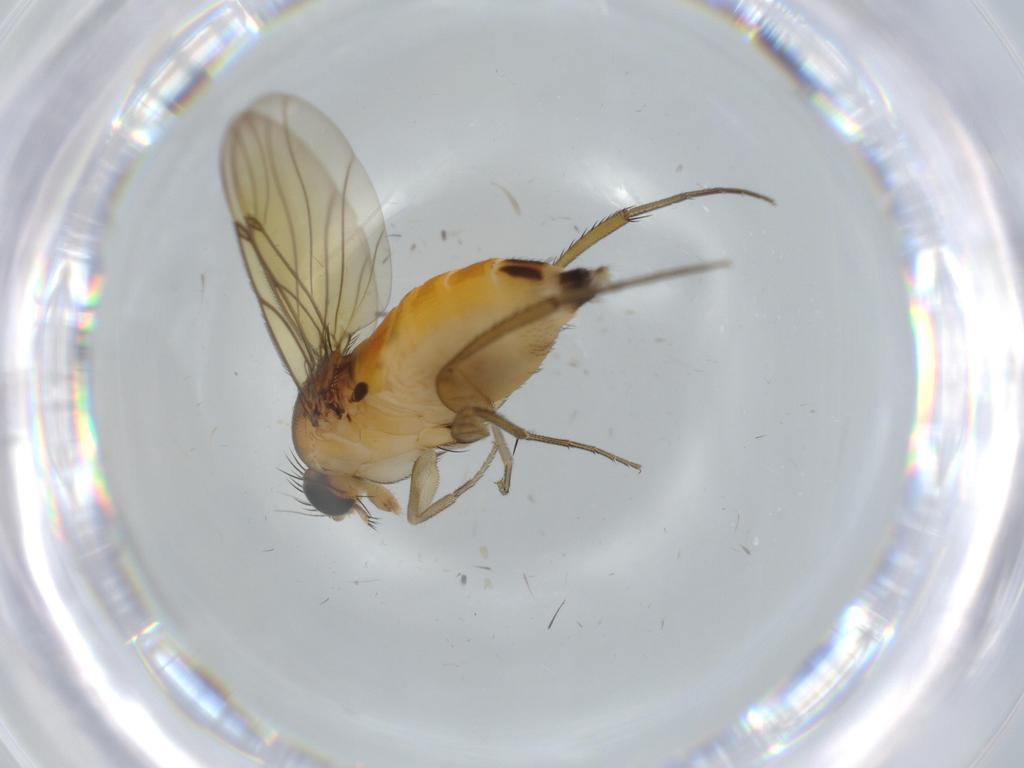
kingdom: Animalia
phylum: Arthropoda
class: Insecta
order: Diptera
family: Phoridae
